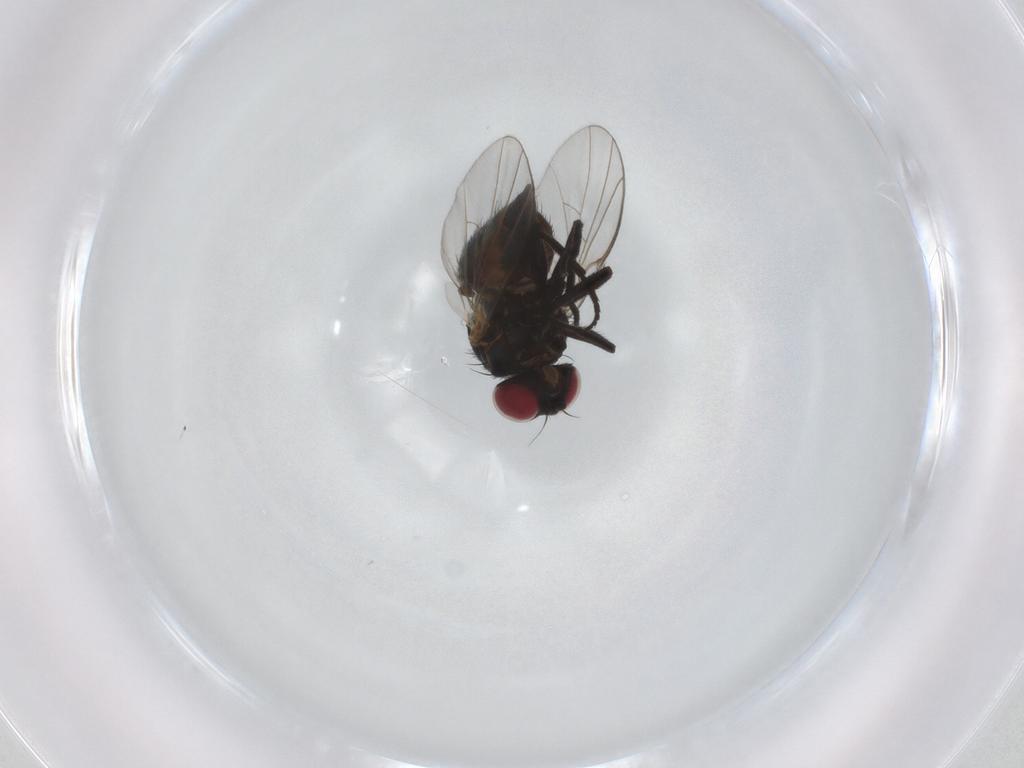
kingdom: Animalia
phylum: Arthropoda
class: Insecta
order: Diptera
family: Agromyzidae
